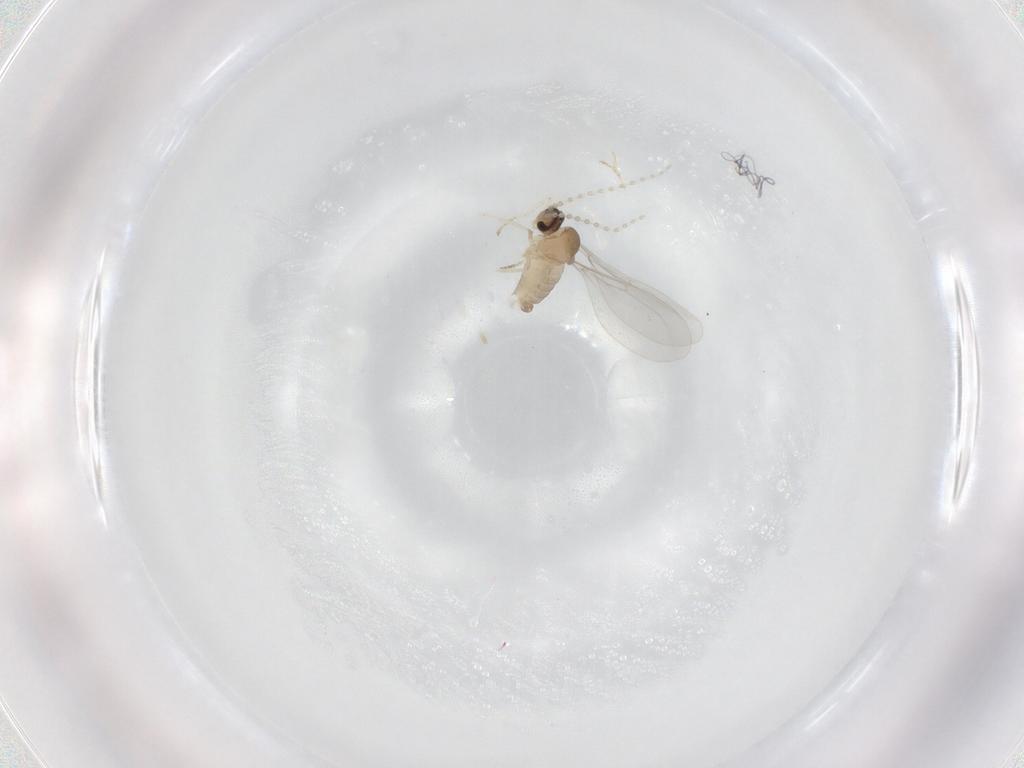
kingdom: Animalia
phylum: Arthropoda
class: Insecta
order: Diptera
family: Cecidomyiidae
